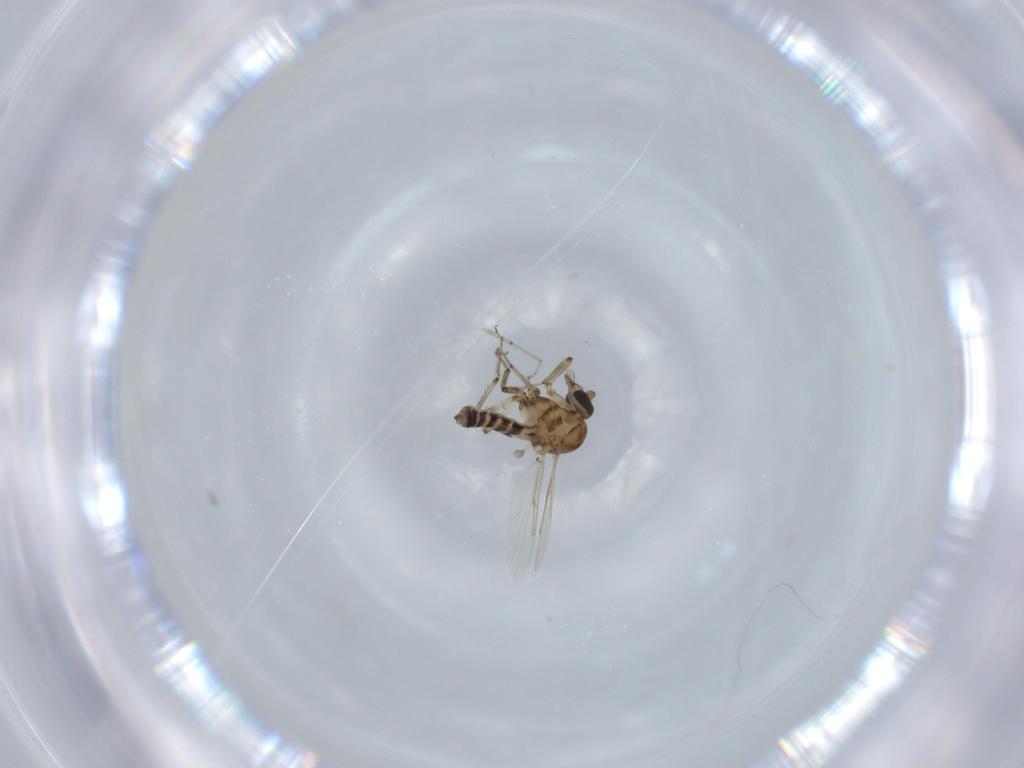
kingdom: Animalia
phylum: Arthropoda
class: Insecta
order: Diptera
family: Ceratopogonidae
